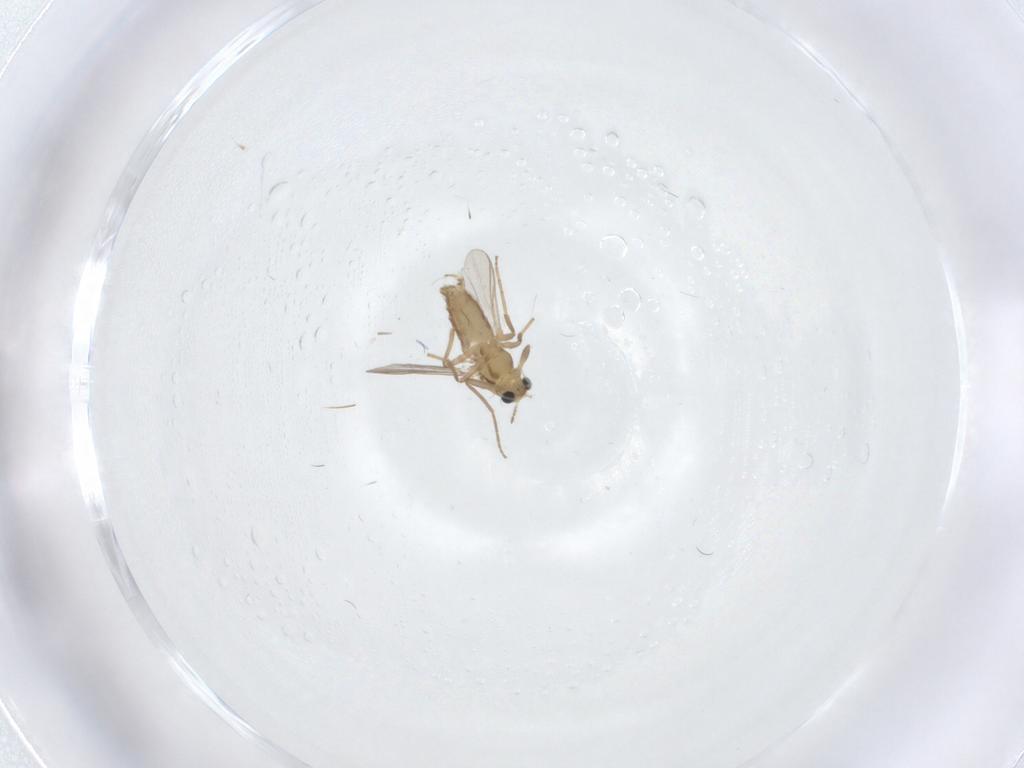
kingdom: Animalia
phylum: Arthropoda
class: Insecta
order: Diptera
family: Chironomidae
